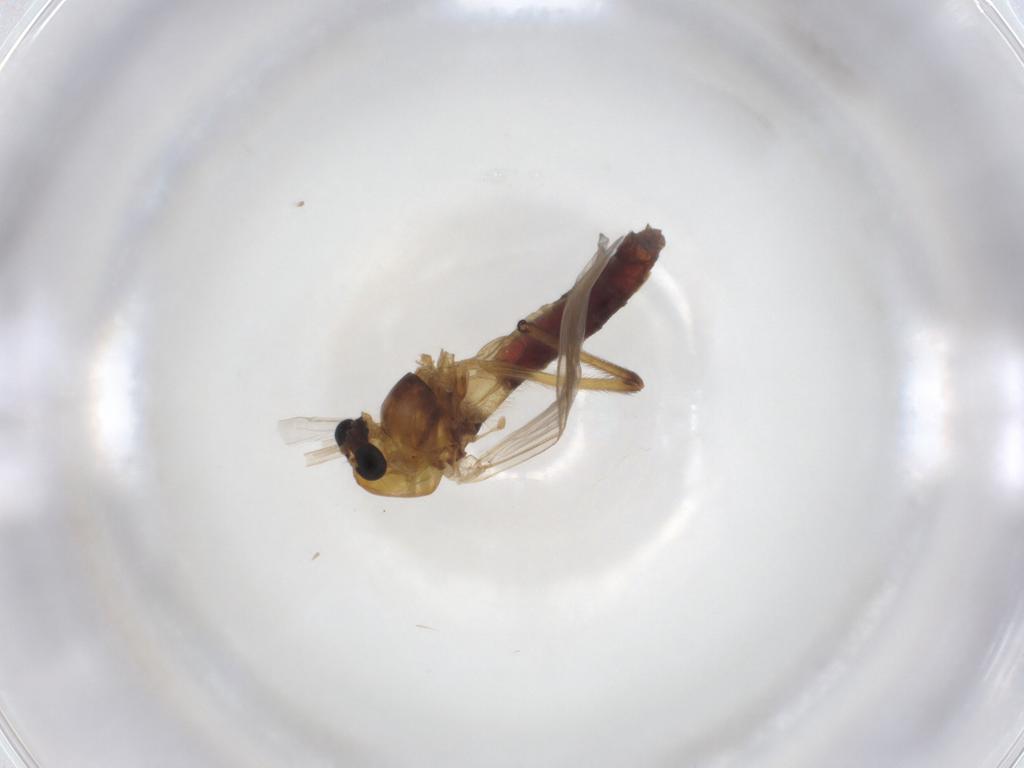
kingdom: Animalia
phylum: Arthropoda
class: Insecta
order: Diptera
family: Chironomidae
